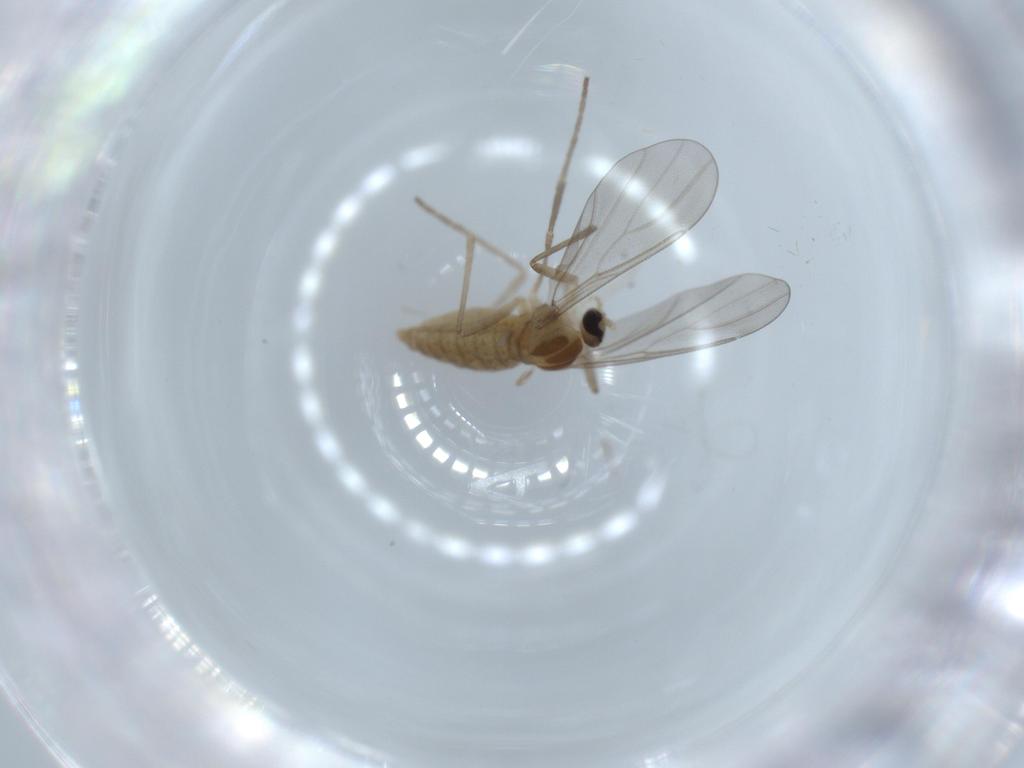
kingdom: Animalia
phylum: Arthropoda
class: Insecta
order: Diptera
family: Cecidomyiidae
